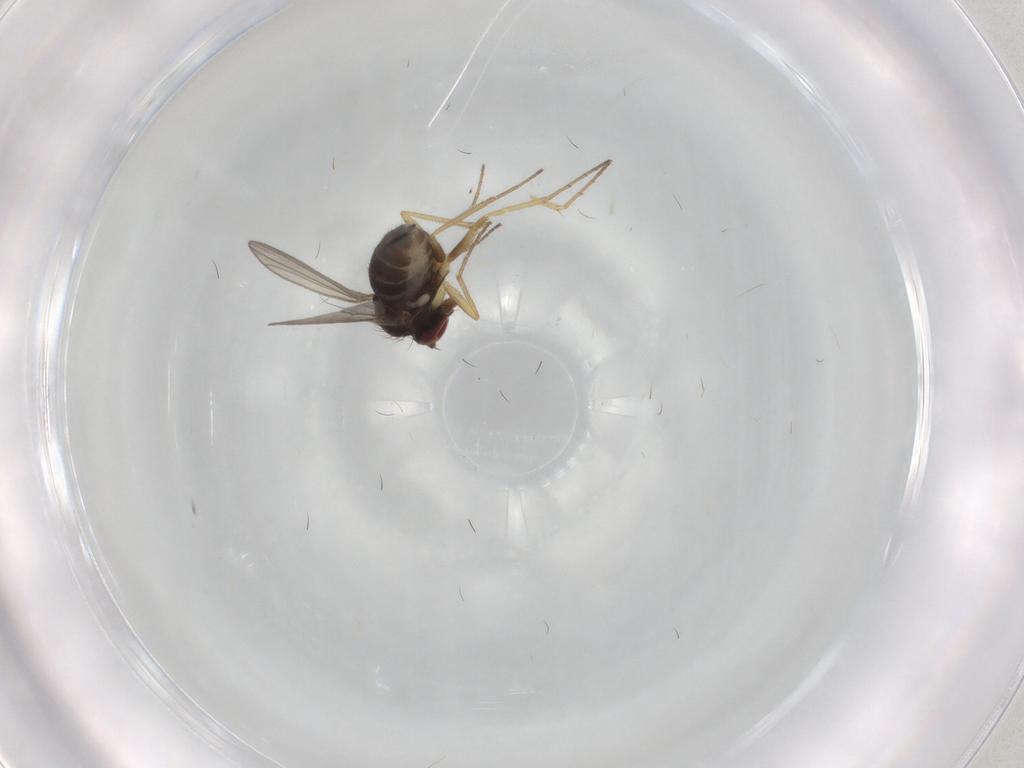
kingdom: Animalia
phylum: Arthropoda
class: Insecta
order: Diptera
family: Dolichopodidae
